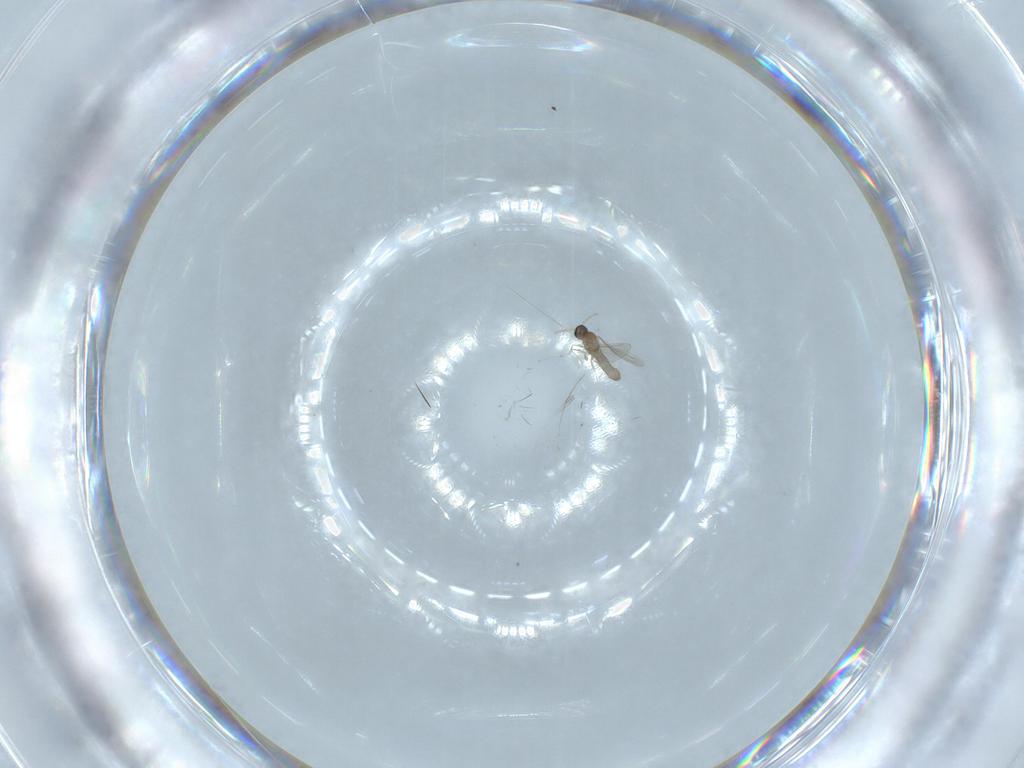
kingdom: Animalia
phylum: Arthropoda
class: Insecta
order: Diptera
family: Cecidomyiidae
